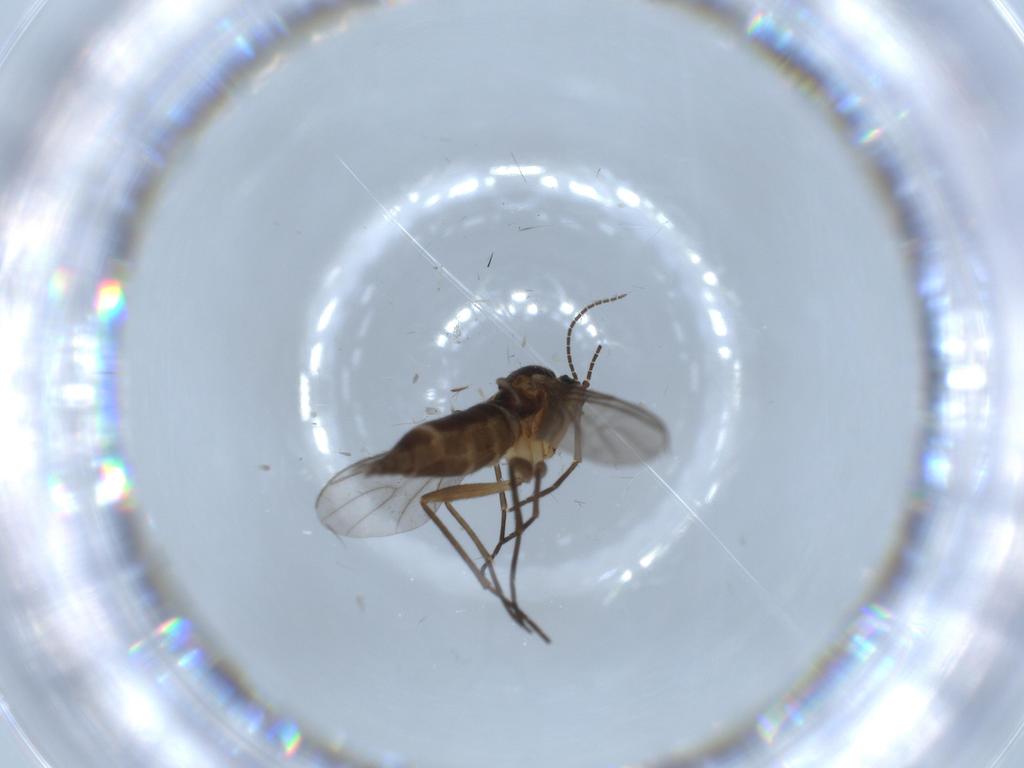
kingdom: Animalia
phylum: Arthropoda
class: Insecta
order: Diptera
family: Sciaridae
